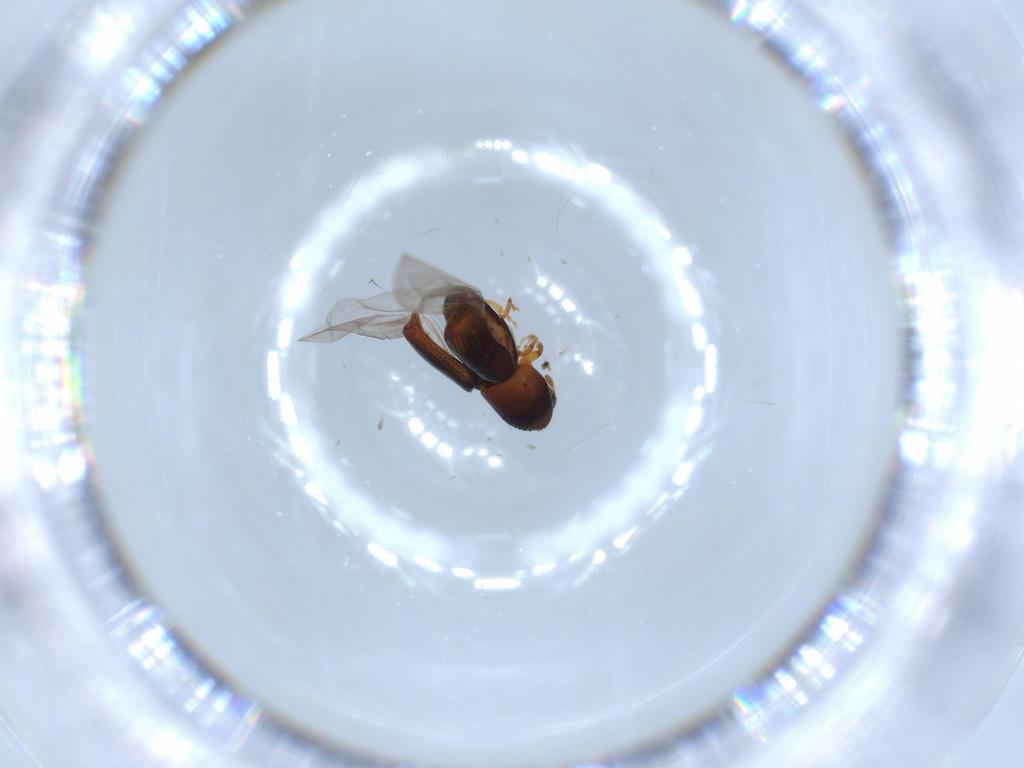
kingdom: Animalia
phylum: Arthropoda
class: Insecta
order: Coleoptera
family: Curculionidae
